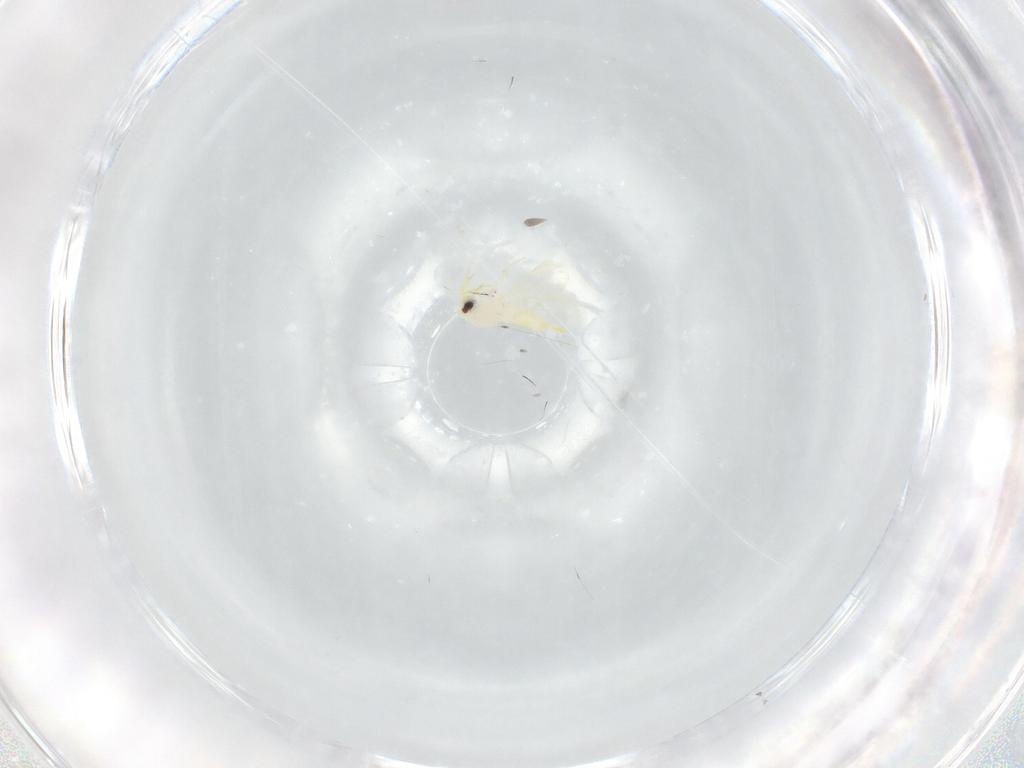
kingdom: Animalia
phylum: Arthropoda
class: Insecta
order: Hemiptera
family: Aleyrodidae
